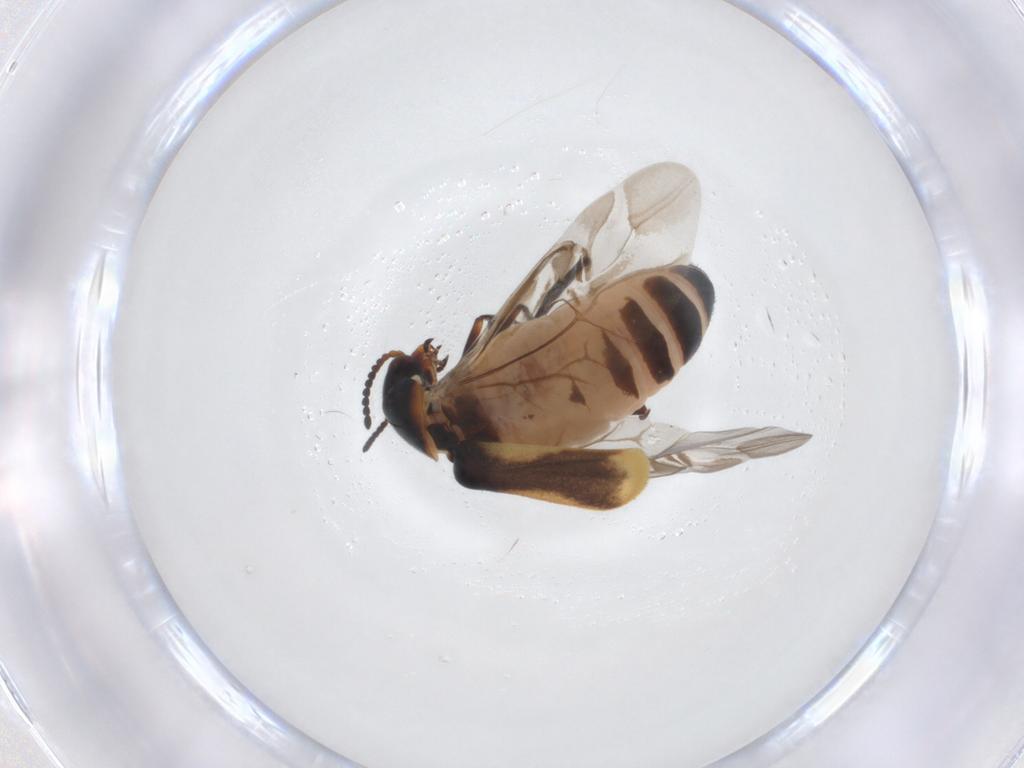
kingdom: Animalia
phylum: Arthropoda
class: Insecta
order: Coleoptera
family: Melyridae
